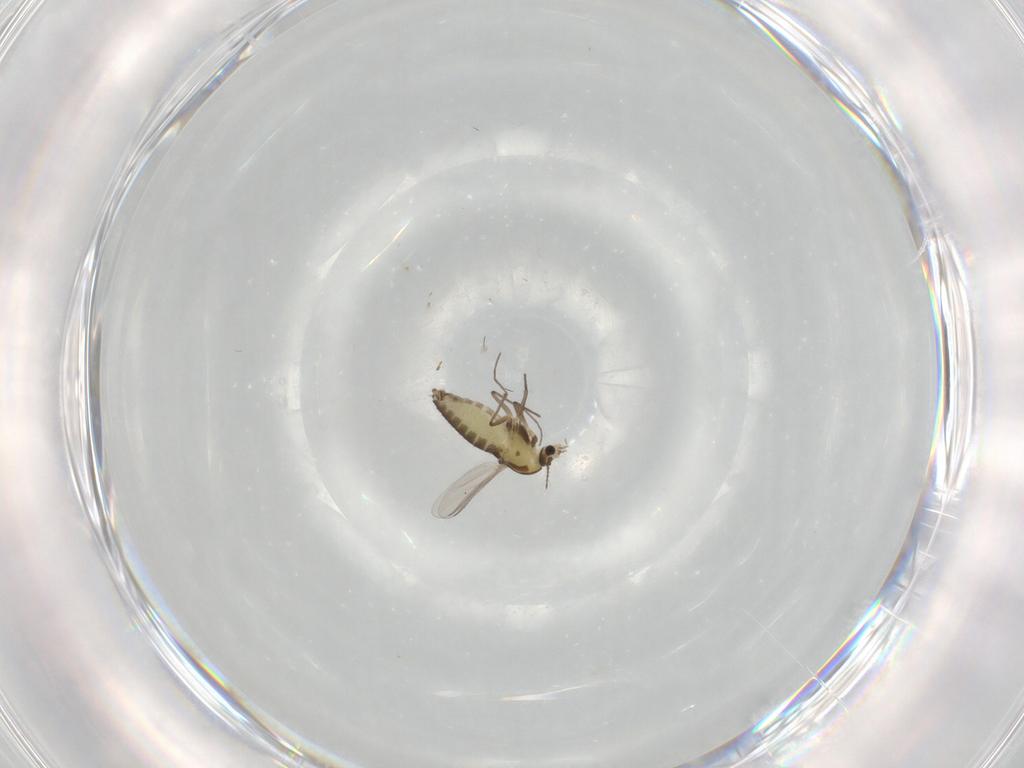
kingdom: Animalia
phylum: Arthropoda
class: Insecta
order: Diptera
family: Chironomidae
